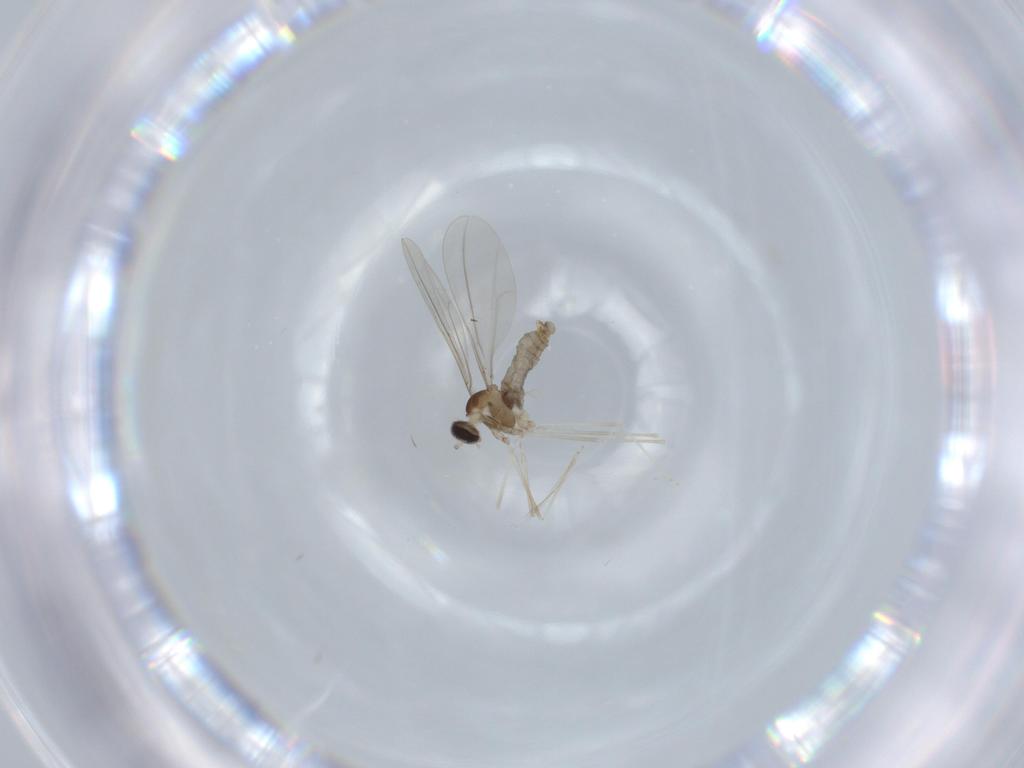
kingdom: Animalia
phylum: Arthropoda
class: Insecta
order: Diptera
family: Cecidomyiidae
